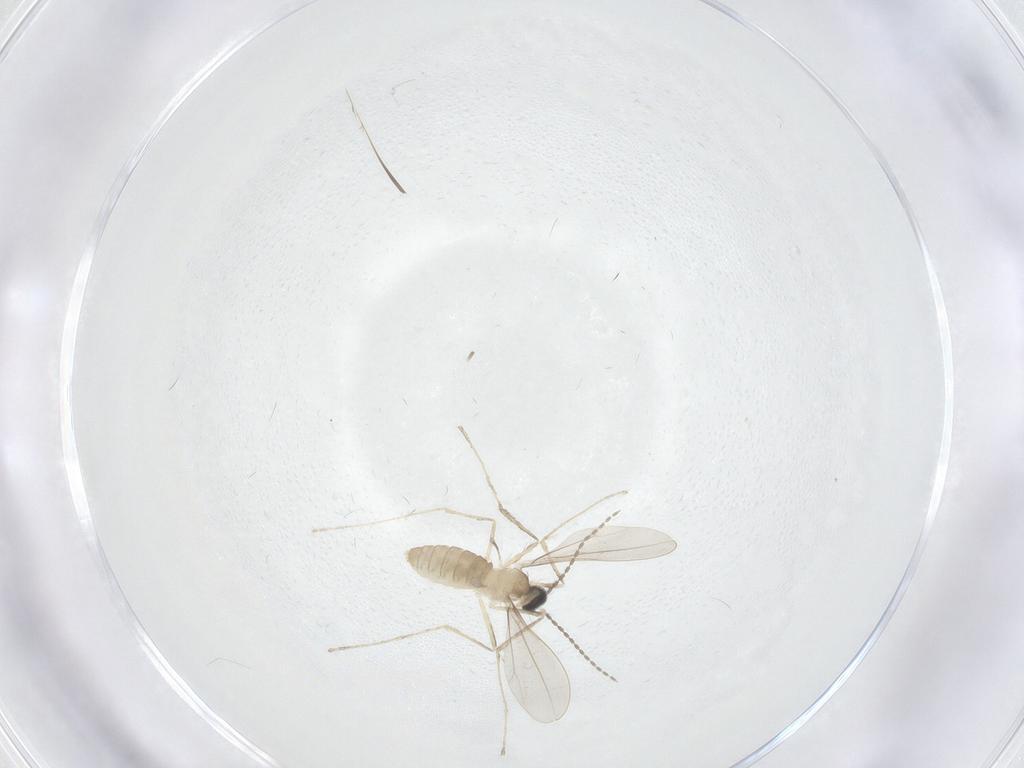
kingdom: Animalia
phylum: Arthropoda
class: Insecta
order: Diptera
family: Cecidomyiidae
